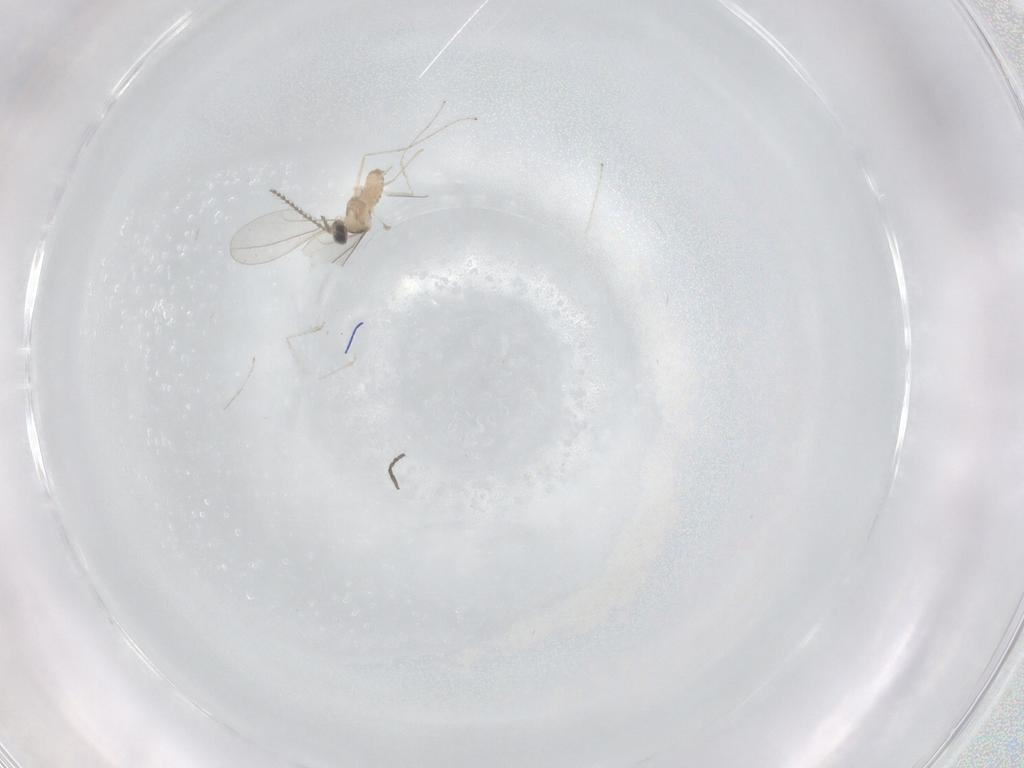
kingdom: Animalia
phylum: Arthropoda
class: Insecta
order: Diptera
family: Sciaridae
